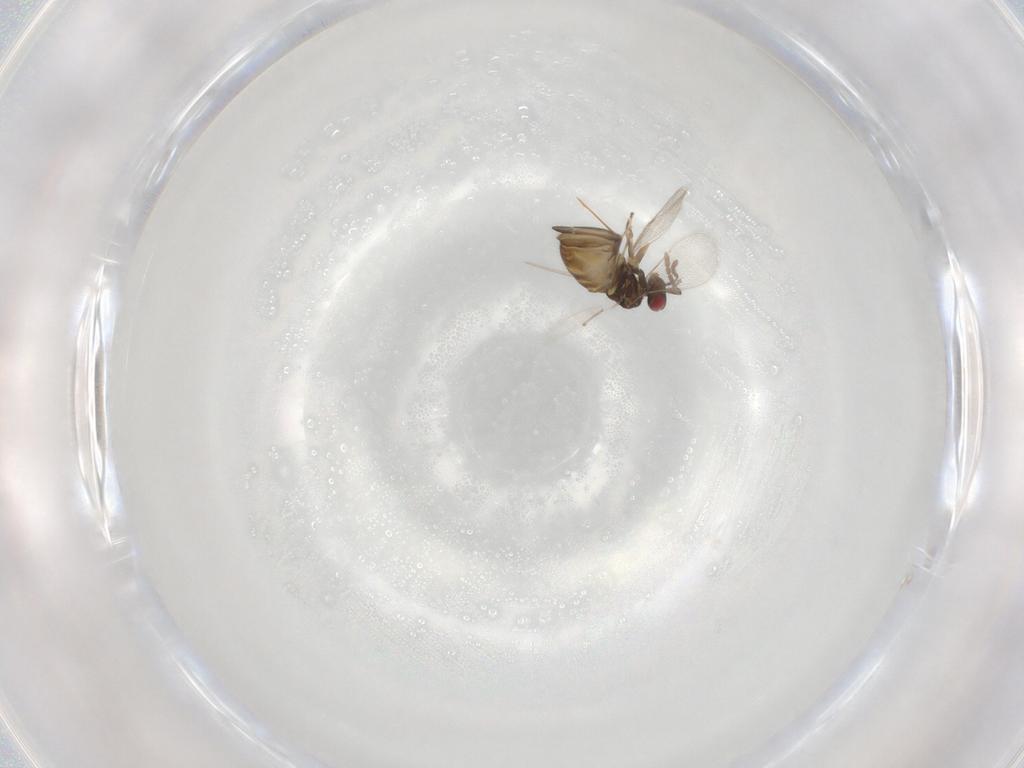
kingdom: Animalia
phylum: Arthropoda
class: Insecta
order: Hymenoptera
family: Eulophidae
